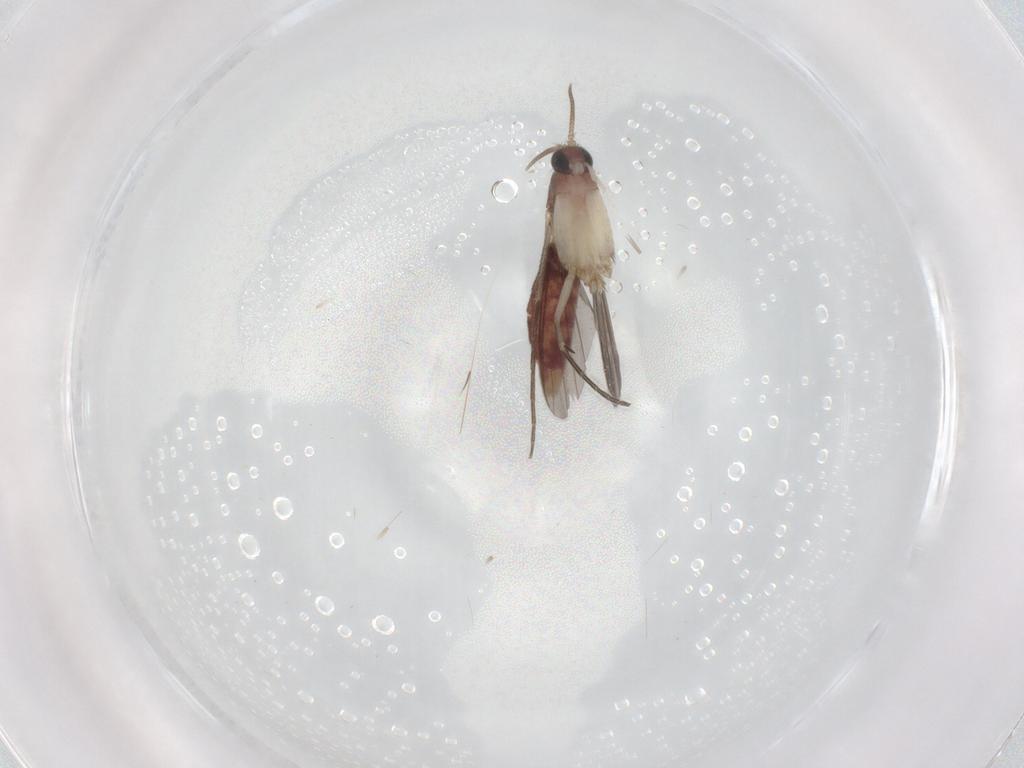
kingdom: Animalia
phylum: Arthropoda
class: Insecta
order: Diptera
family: Mycetophilidae
